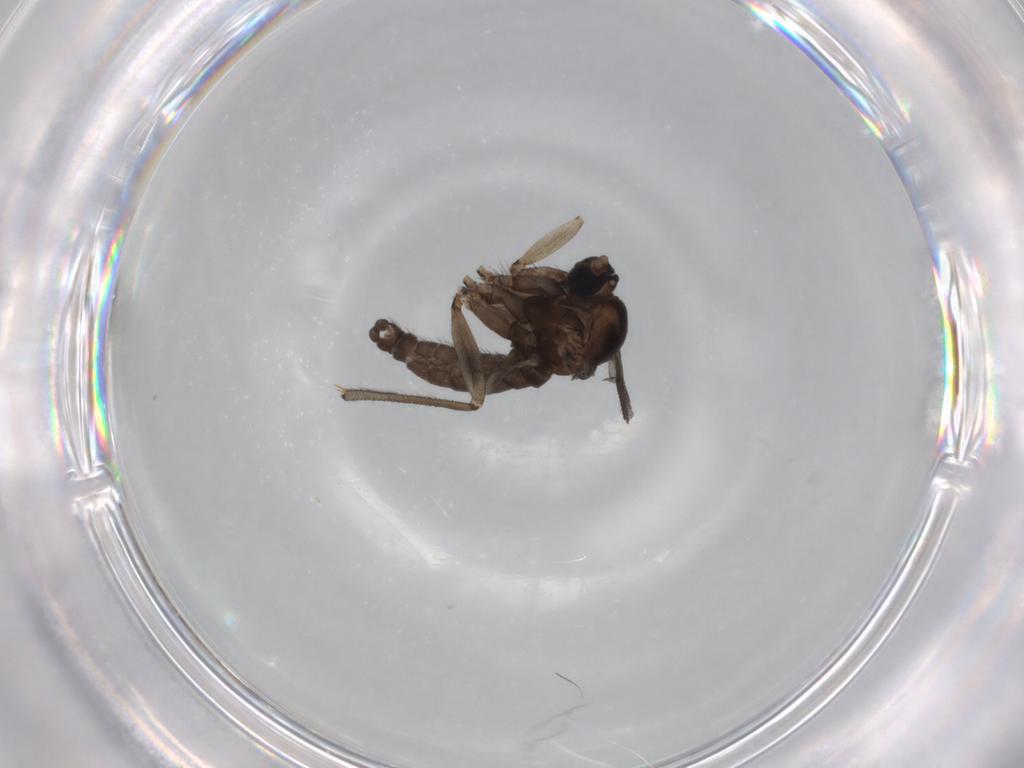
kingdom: Animalia
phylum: Arthropoda
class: Insecta
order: Diptera
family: Sciaridae
